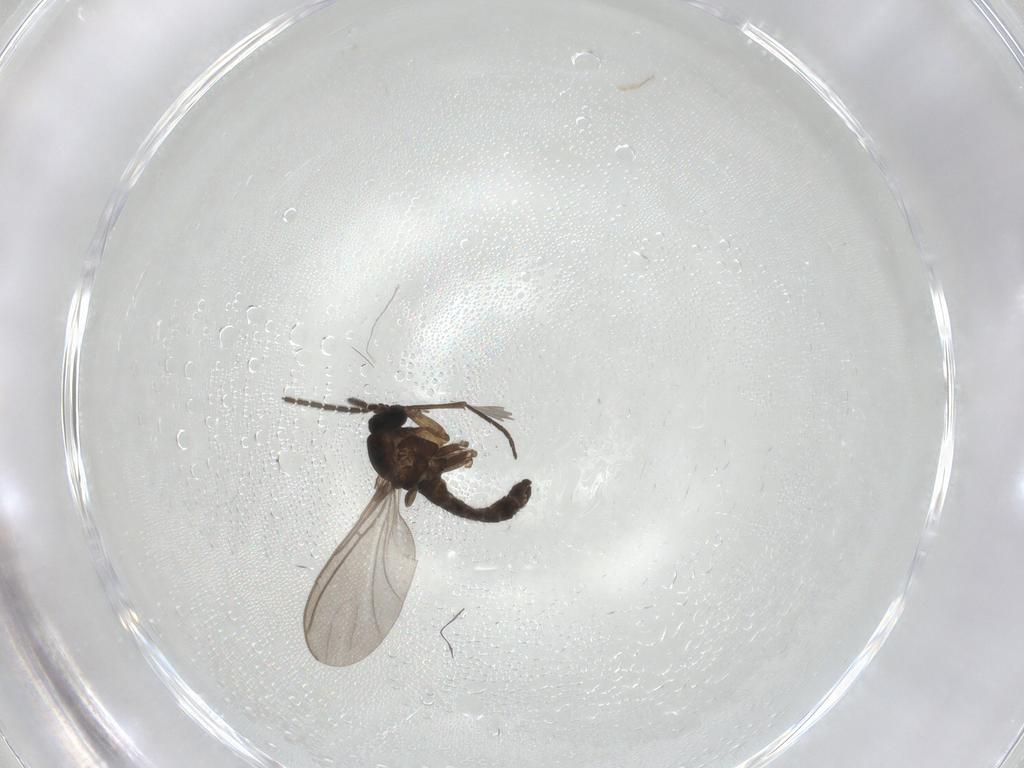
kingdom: Animalia
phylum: Arthropoda
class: Insecta
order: Diptera
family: Sciaridae
